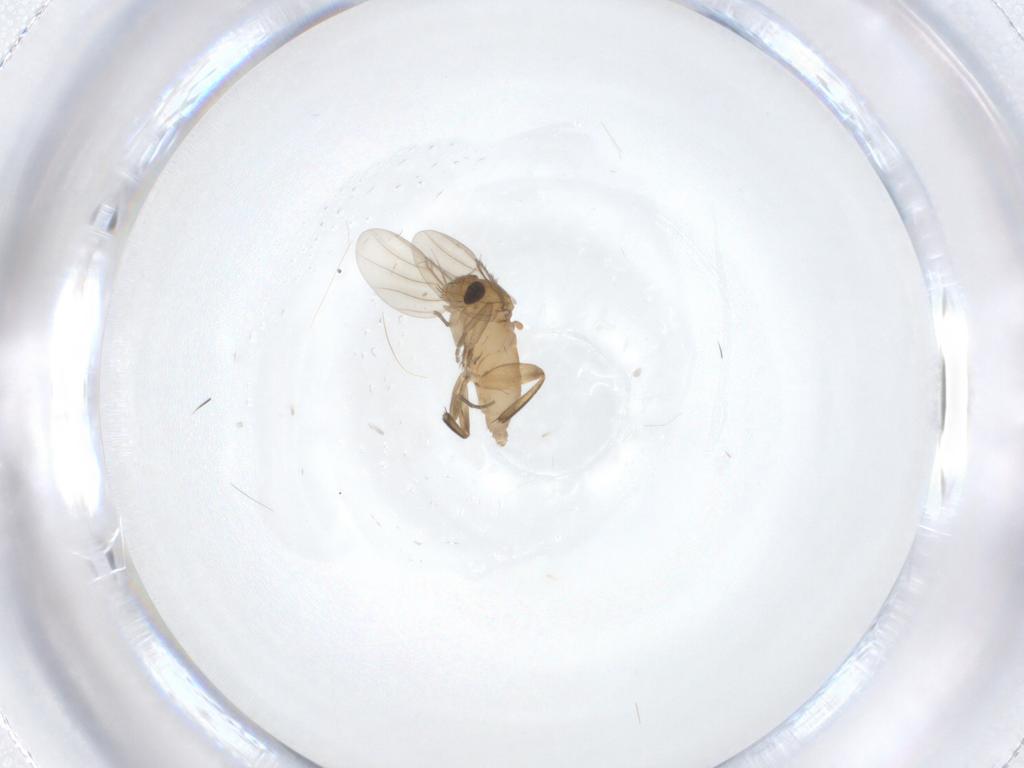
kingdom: Animalia
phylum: Arthropoda
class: Insecta
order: Diptera
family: Phoridae
